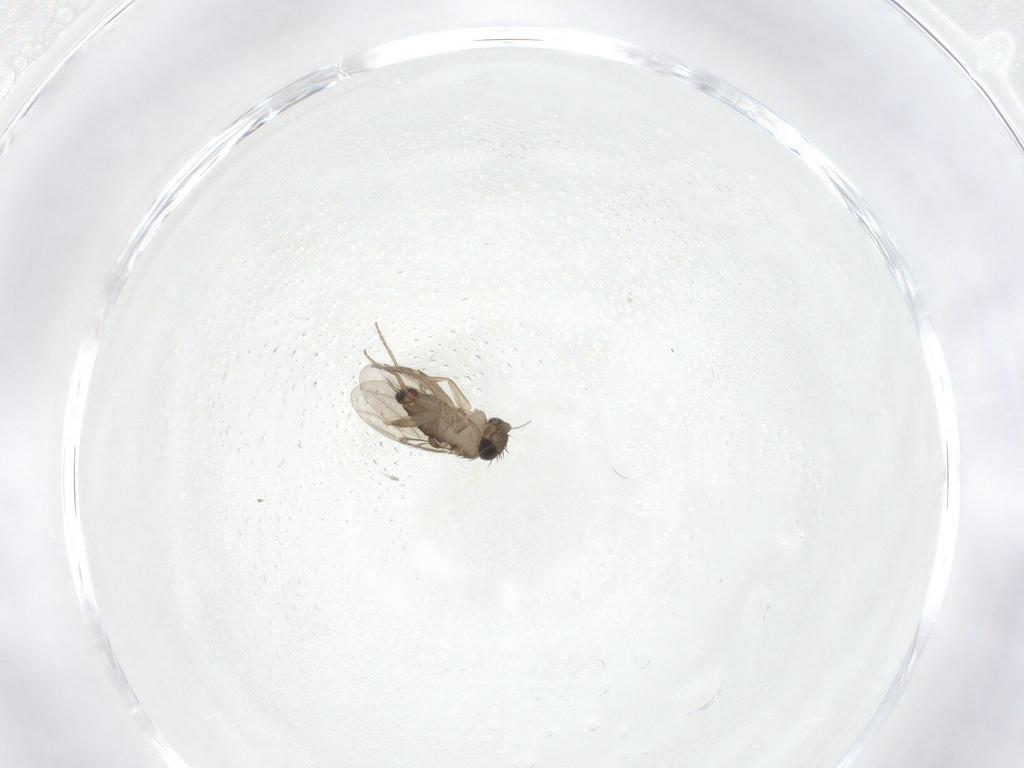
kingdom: Animalia
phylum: Arthropoda
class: Insecta
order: Diptera
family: Phoridae
